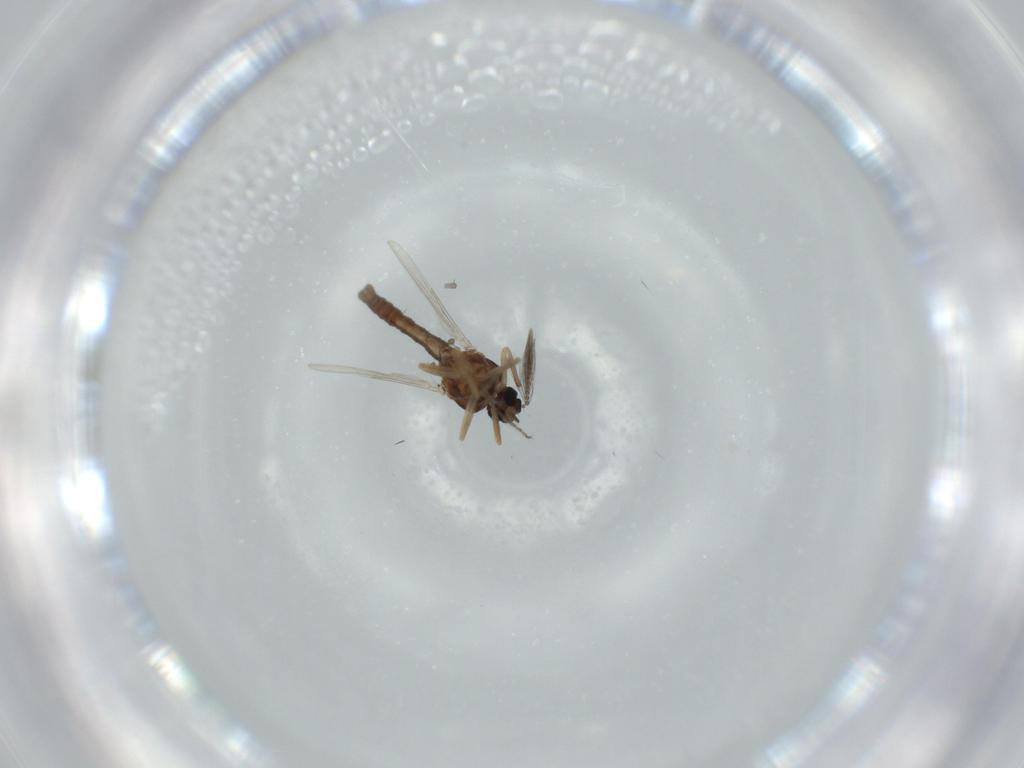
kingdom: Animalia
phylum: Arthropoda
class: Insecta
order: Diptera
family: Ceratopogonidae
